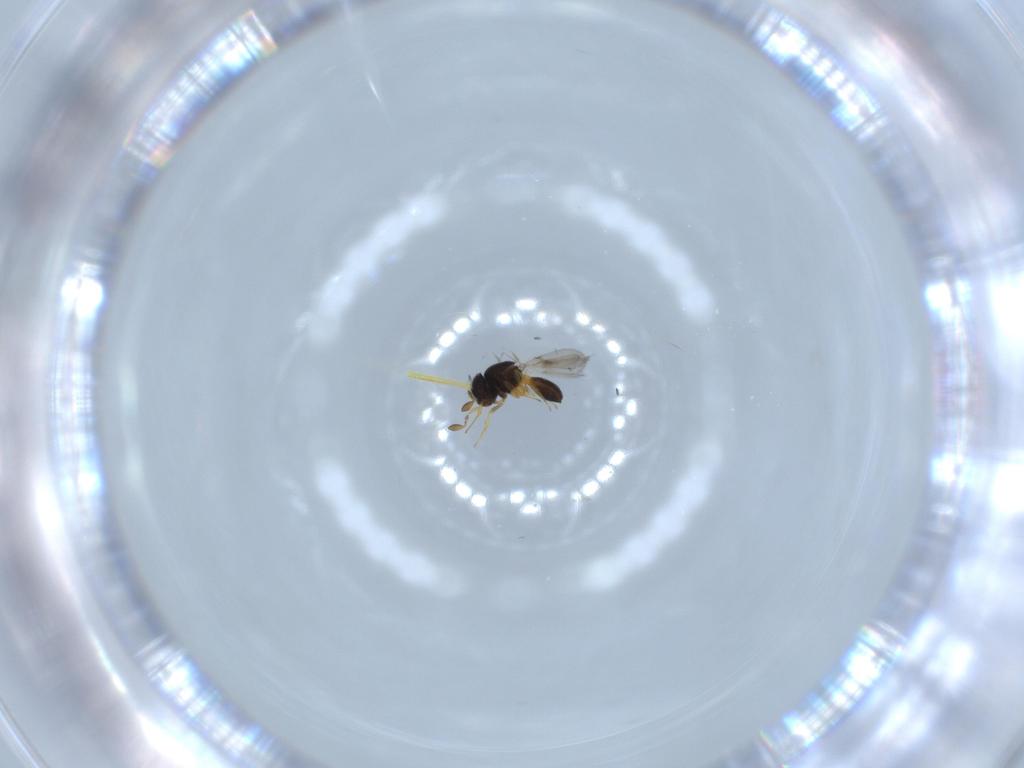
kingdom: Animalia
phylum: Arthropoda
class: Insecta
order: Hymenoptera
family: Scelionidae
